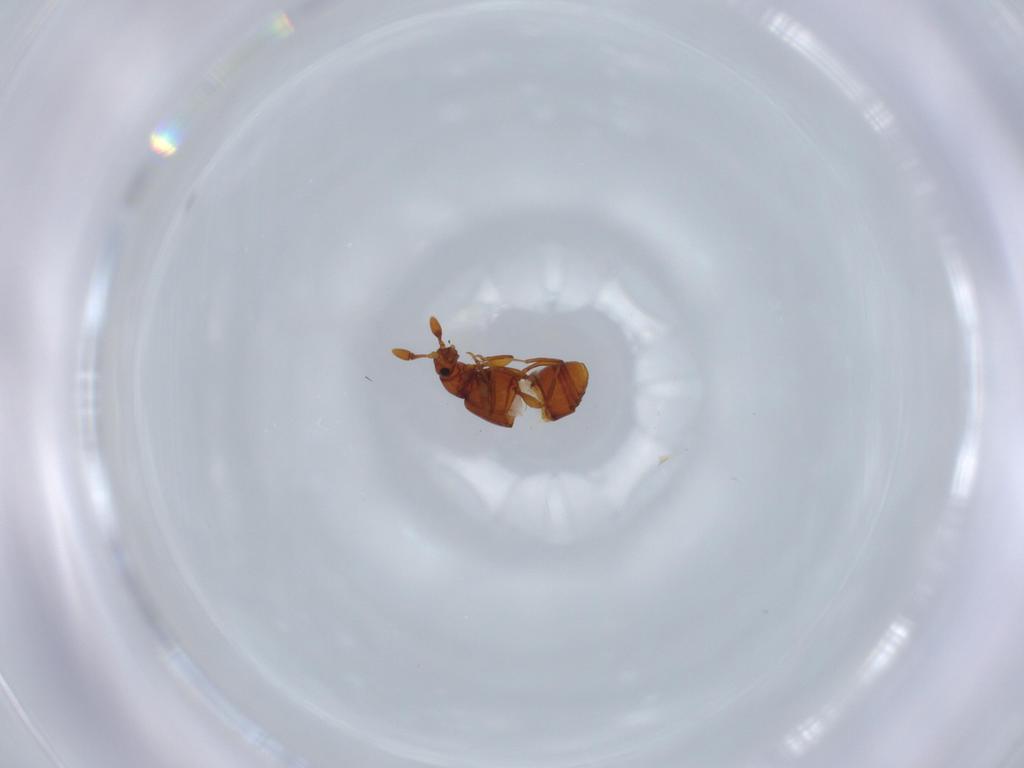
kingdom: Animalia
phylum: Arthropoda
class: Insecta
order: Coleoptera
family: Staphylinidae
